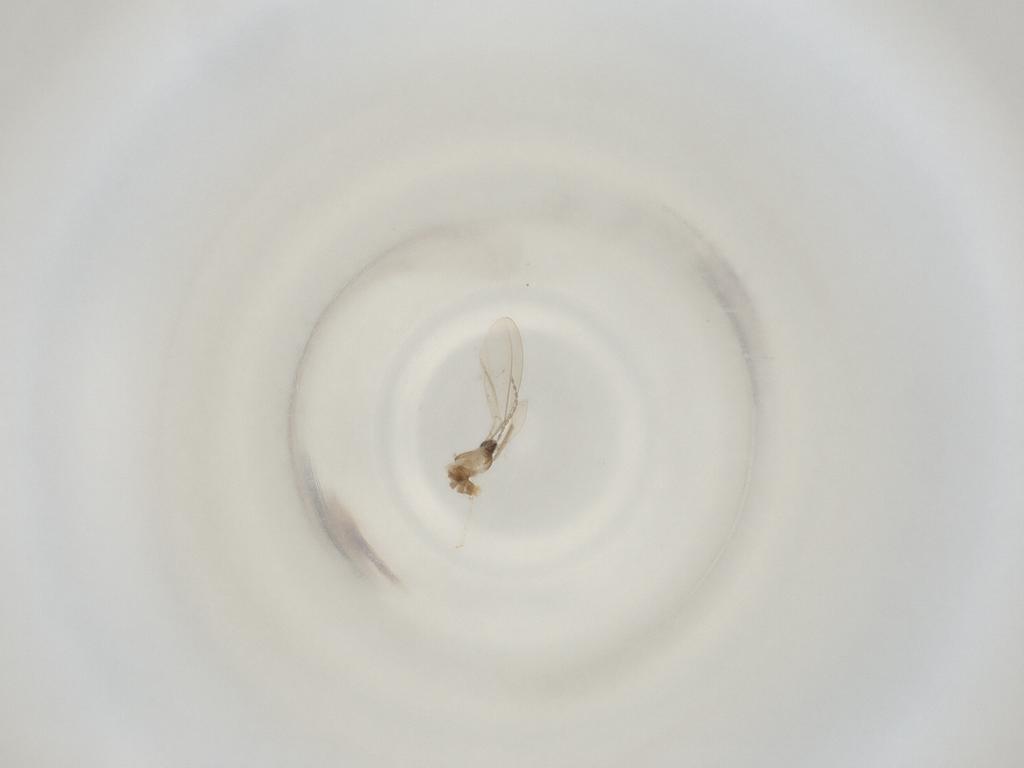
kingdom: Animalia
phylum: Arthropoda
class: Insecta
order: Diptera
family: Cecidomyiidae
